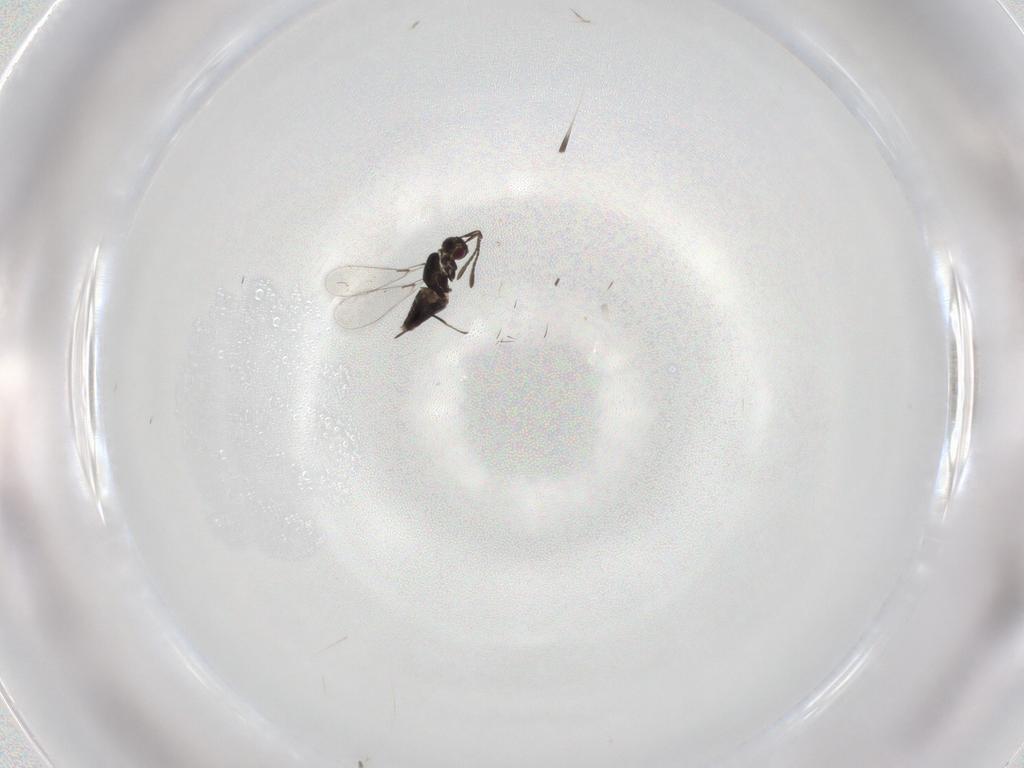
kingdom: Animalia
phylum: Arthropoda
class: Insecta
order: Hymenoptera
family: Mymaridae
